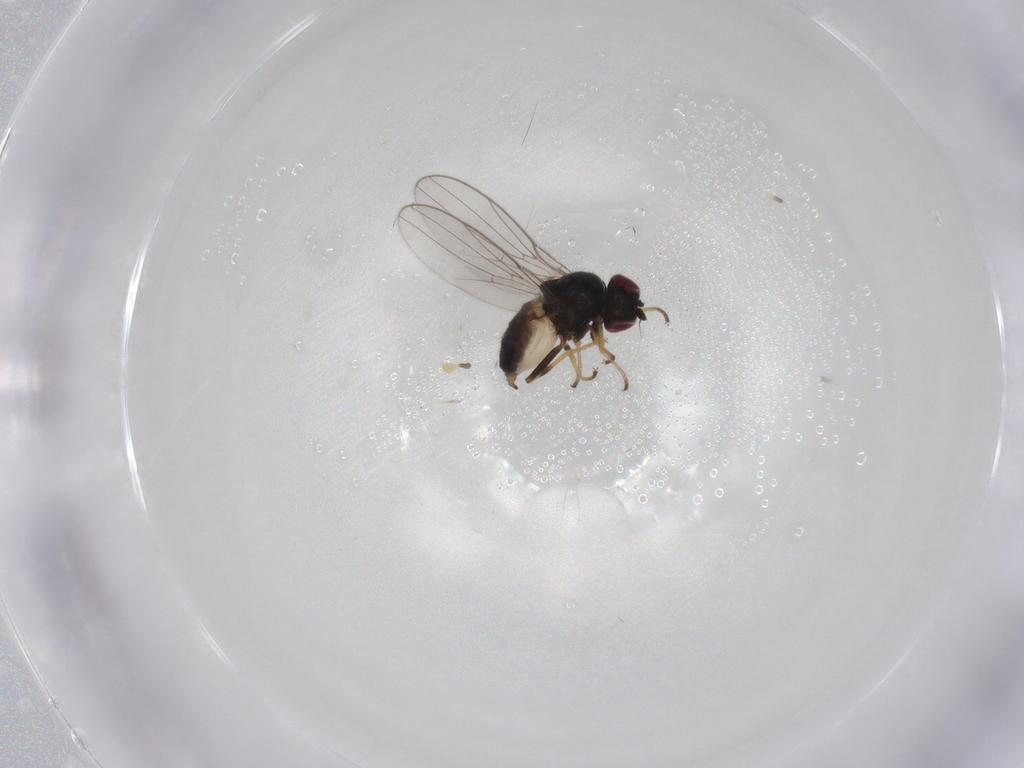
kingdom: Animalia
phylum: Arthropoda
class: Insecta
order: Diptera
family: Chloropidae
